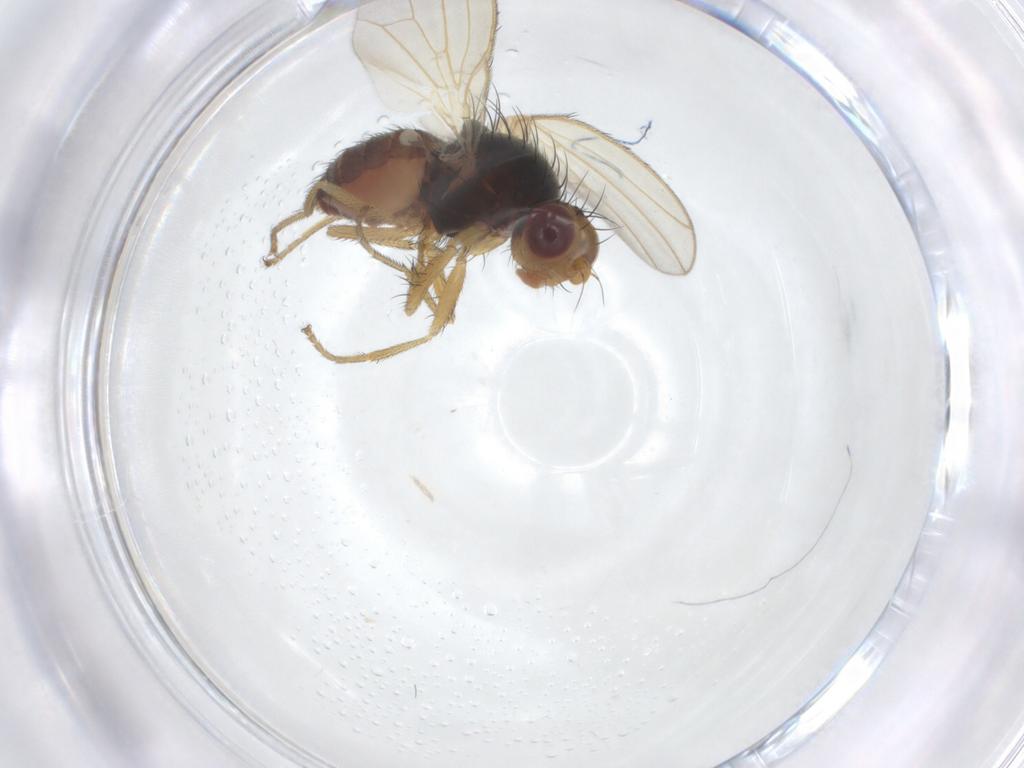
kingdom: Animalia
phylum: Arthropoda
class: Insecta
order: Diptera
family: Heleomyzidae
